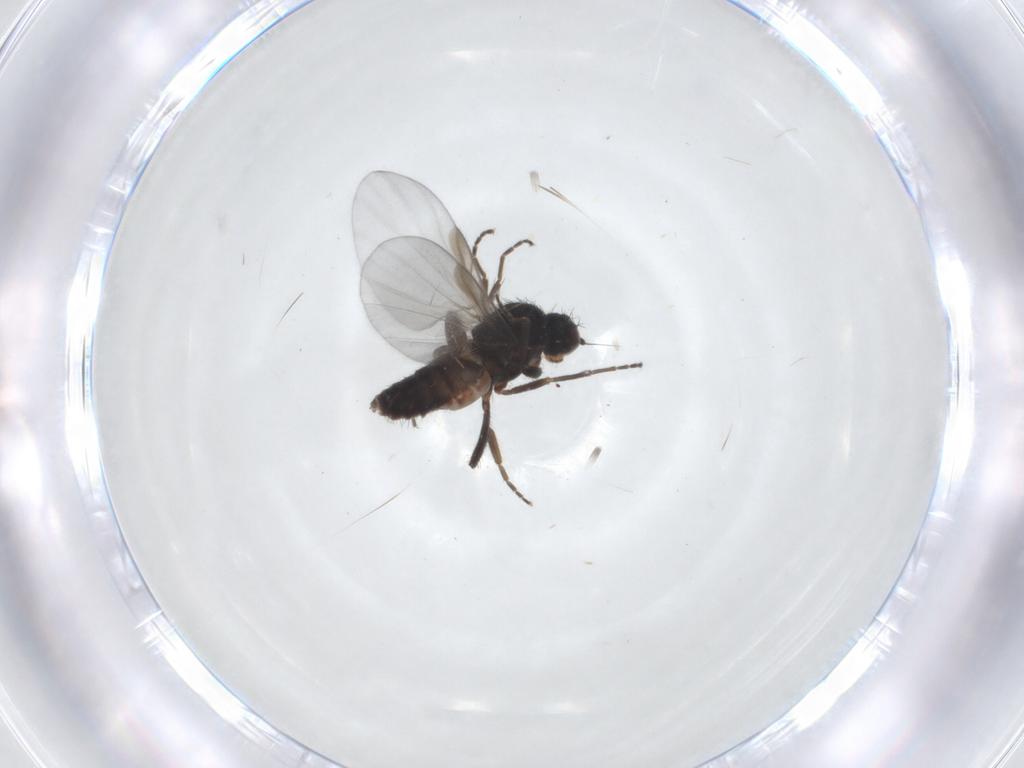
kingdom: Animalia
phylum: Arthropoda
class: Insecta
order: Diptera
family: Platypezidae
